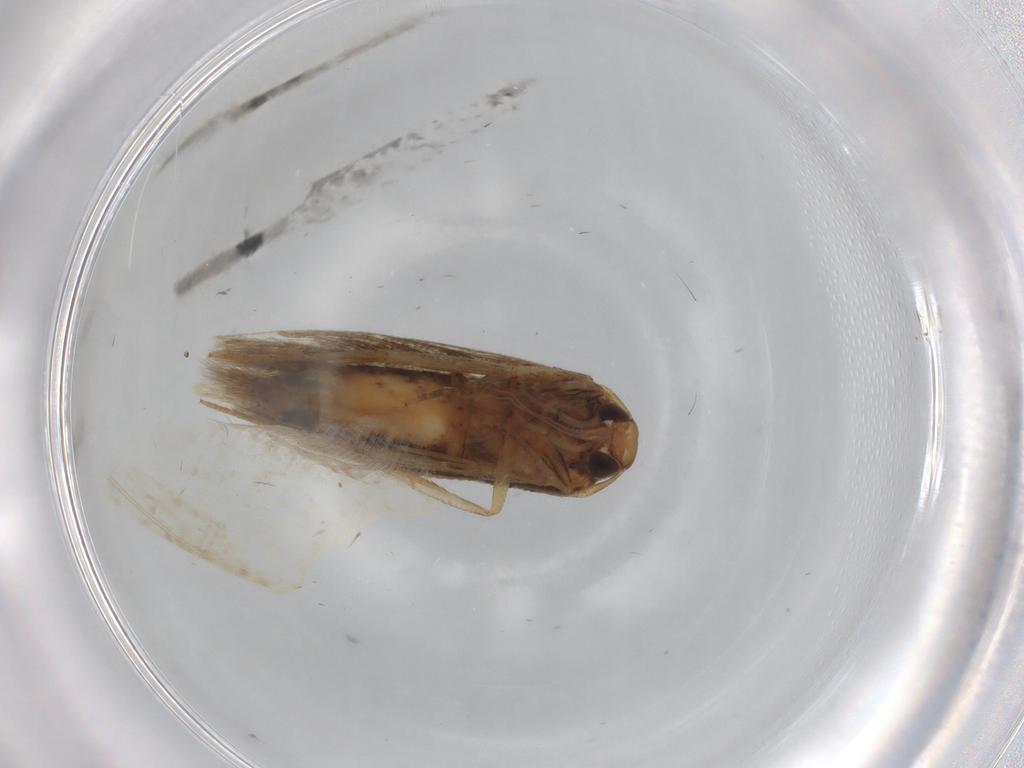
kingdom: Animalia
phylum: Arthropoda
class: Insecta
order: Lepidoptera
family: Cosmopterigidae
